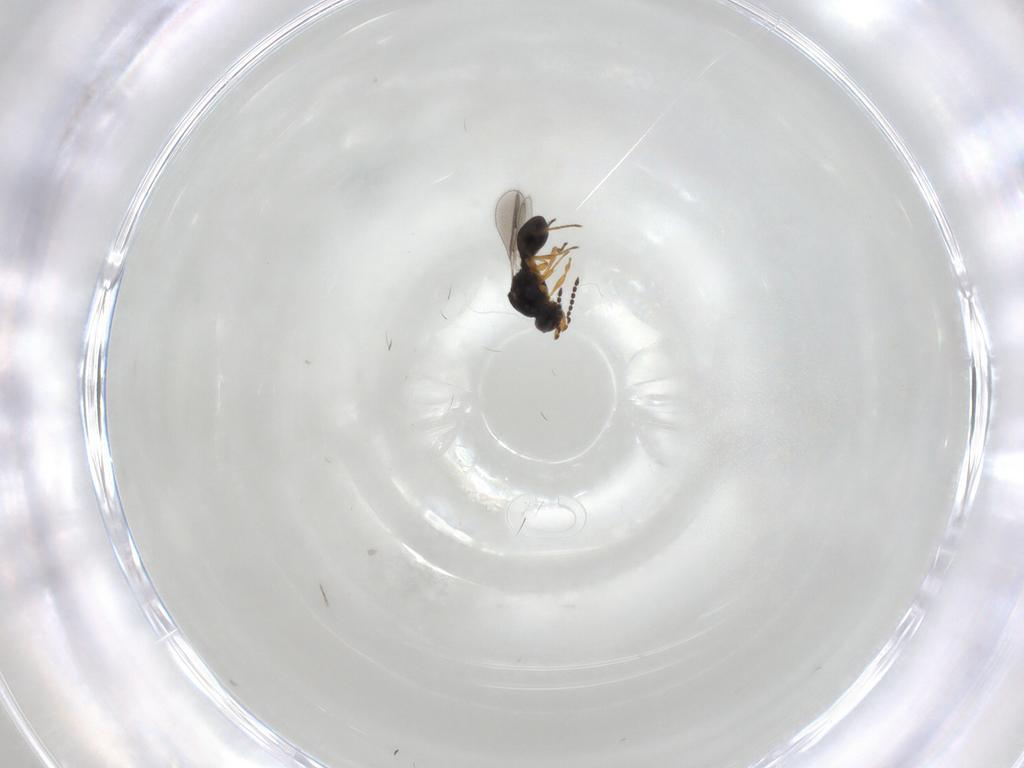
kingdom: Animalia
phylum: Arthropoda
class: Insecta
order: Hymenoptera
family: Platygastridae
